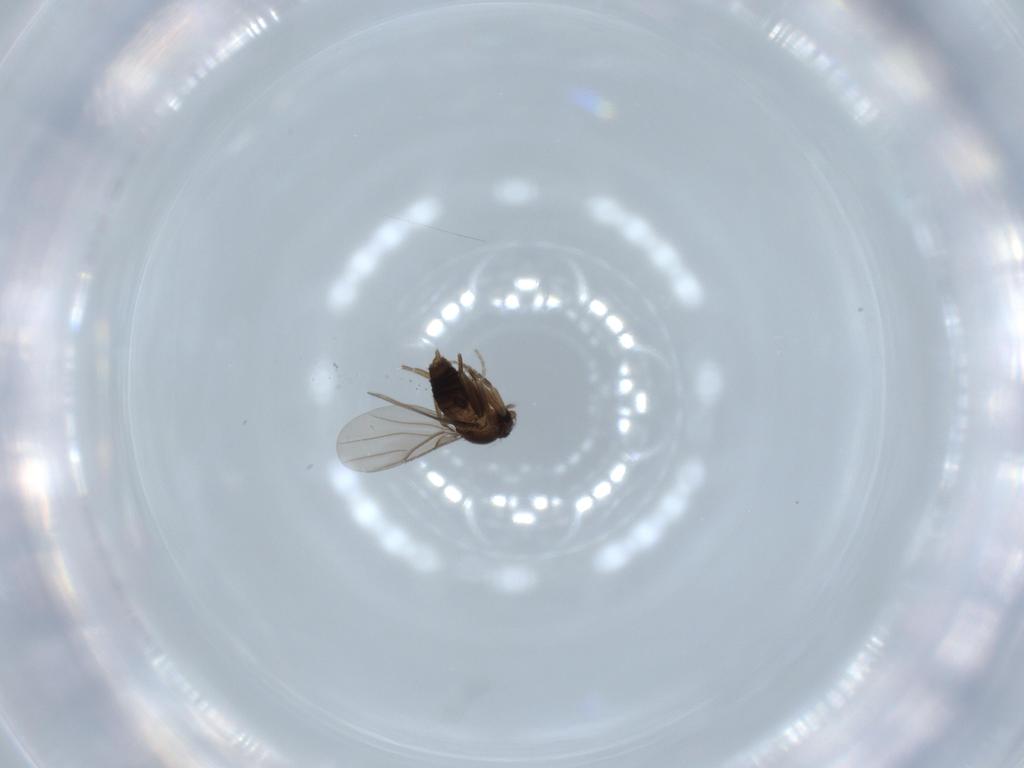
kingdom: Animalia
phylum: Arthropoda
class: Insecta
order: Diptera
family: Phoridae
